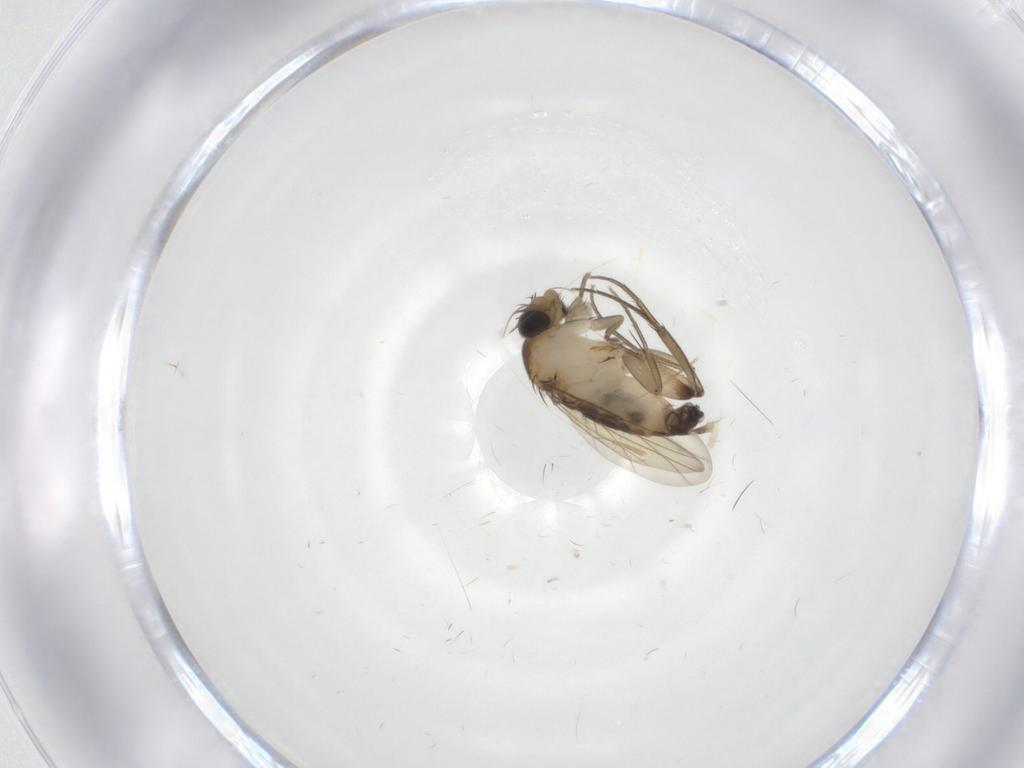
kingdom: Animalia
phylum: Arthropoda
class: Insecta
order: Diptera
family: Phoridae
